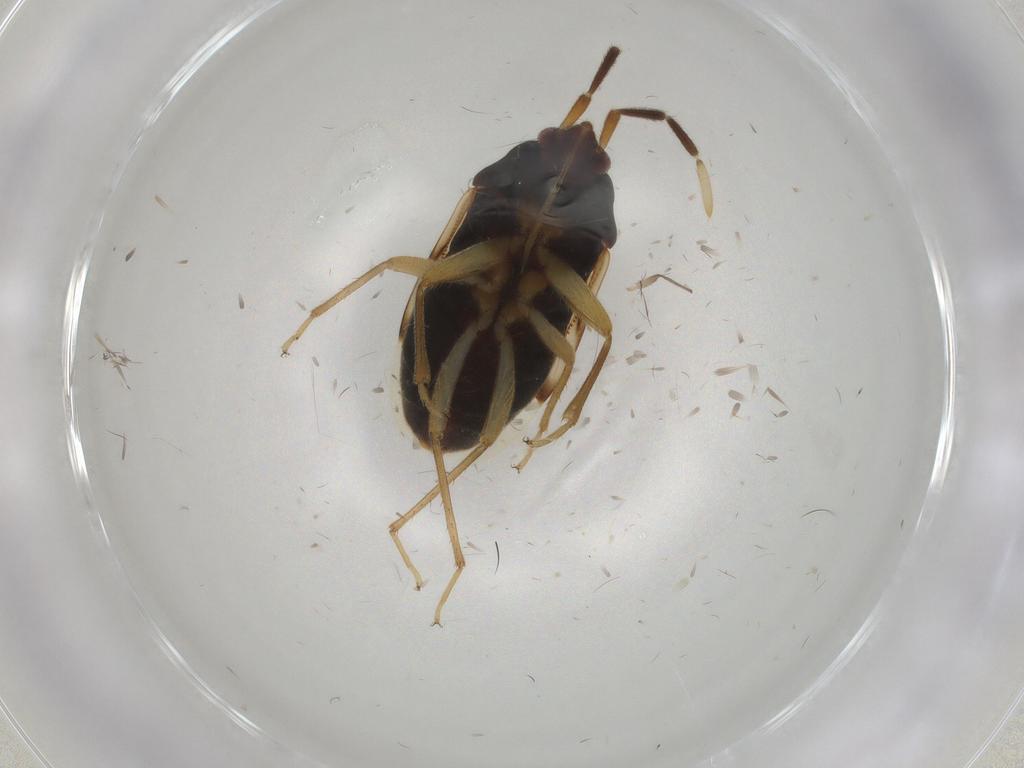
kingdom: Animalia
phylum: Arthropoda
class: Insecta
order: Hemiptera
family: Rhyparochromidae
